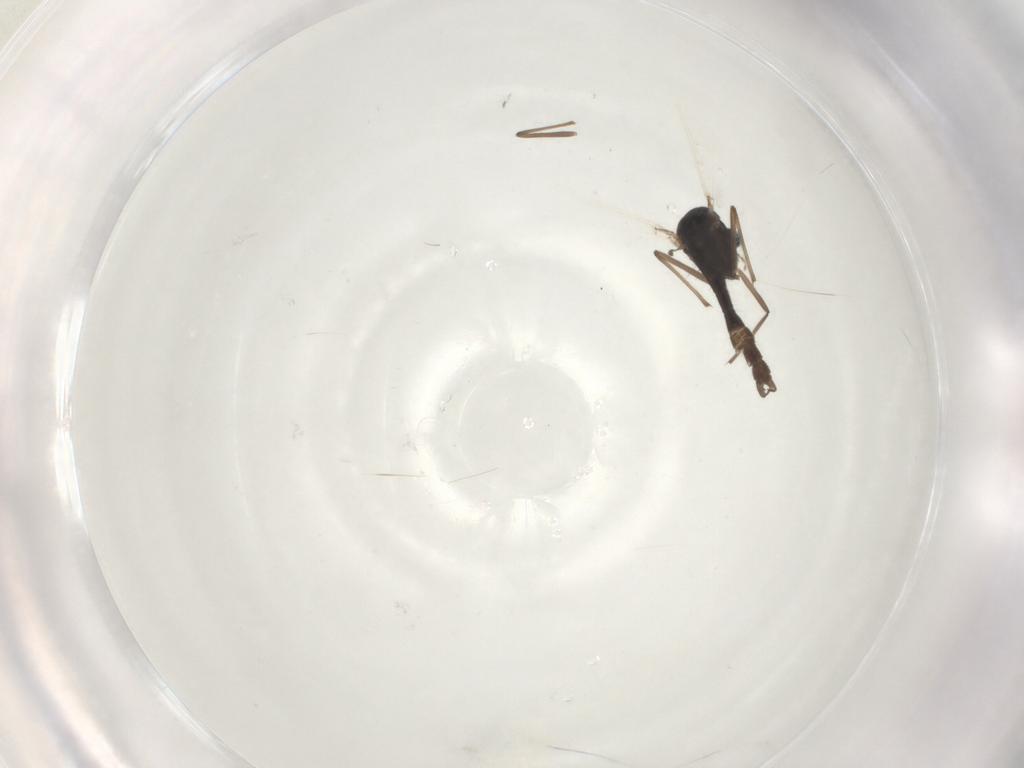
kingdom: Animalia
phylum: Arthropoda
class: Insecta
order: Diptera
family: Chironomidae
